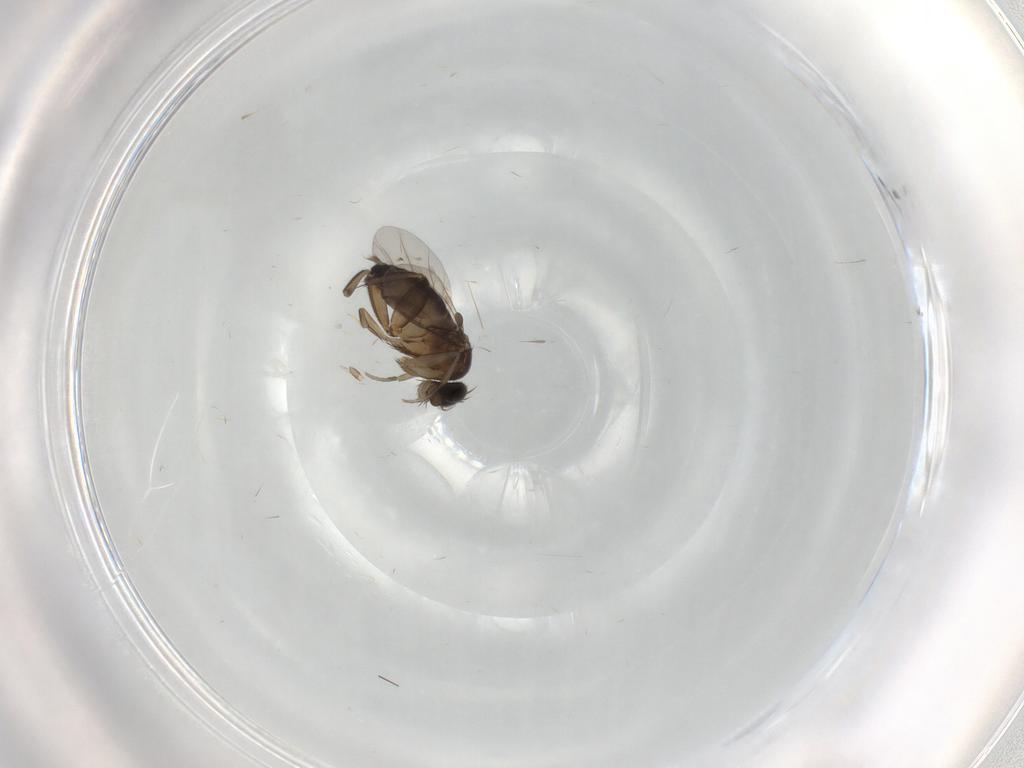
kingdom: Animalia
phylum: Arthropoda
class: Insecta
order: Diptera
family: Phoridae
